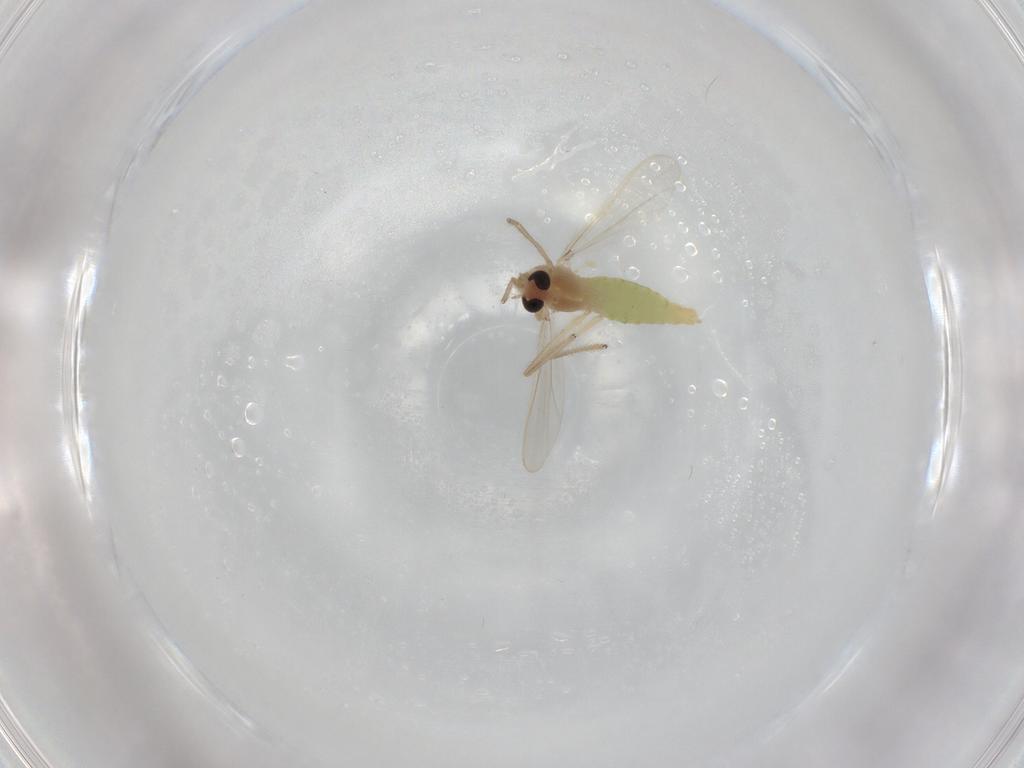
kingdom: Animalia
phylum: Arthropoda
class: Insecta
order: Diptera
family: Chironomidae
